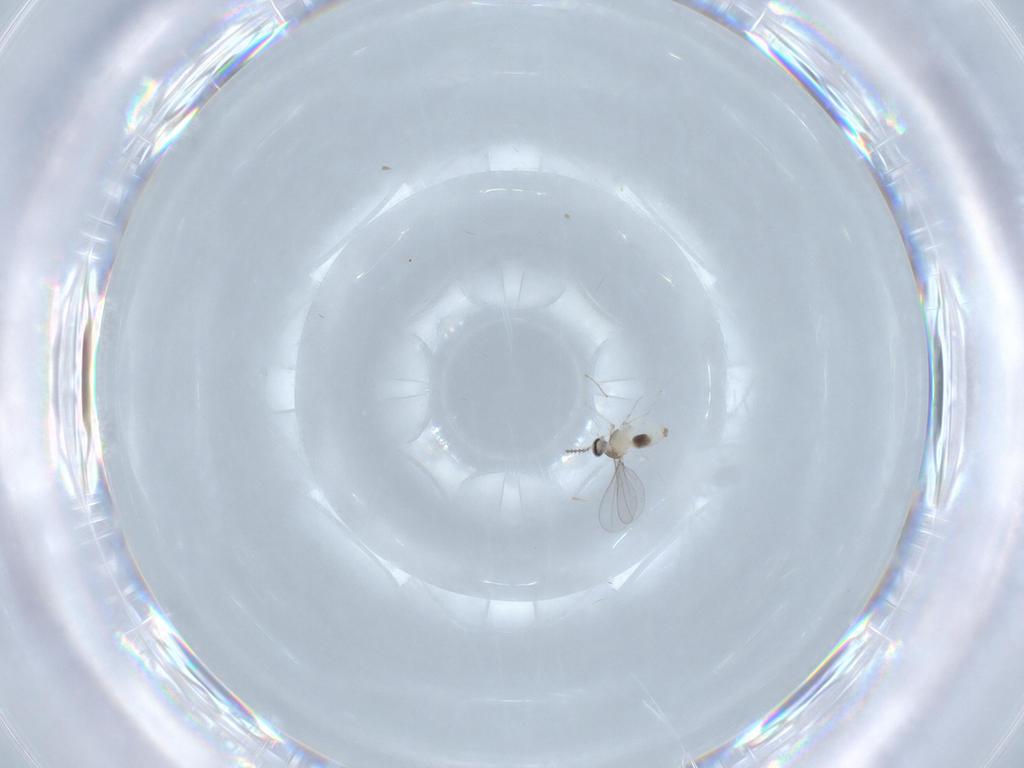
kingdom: Animalia
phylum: Arthropoda
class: Insecta
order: Diptera
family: Cecidomyiidae
